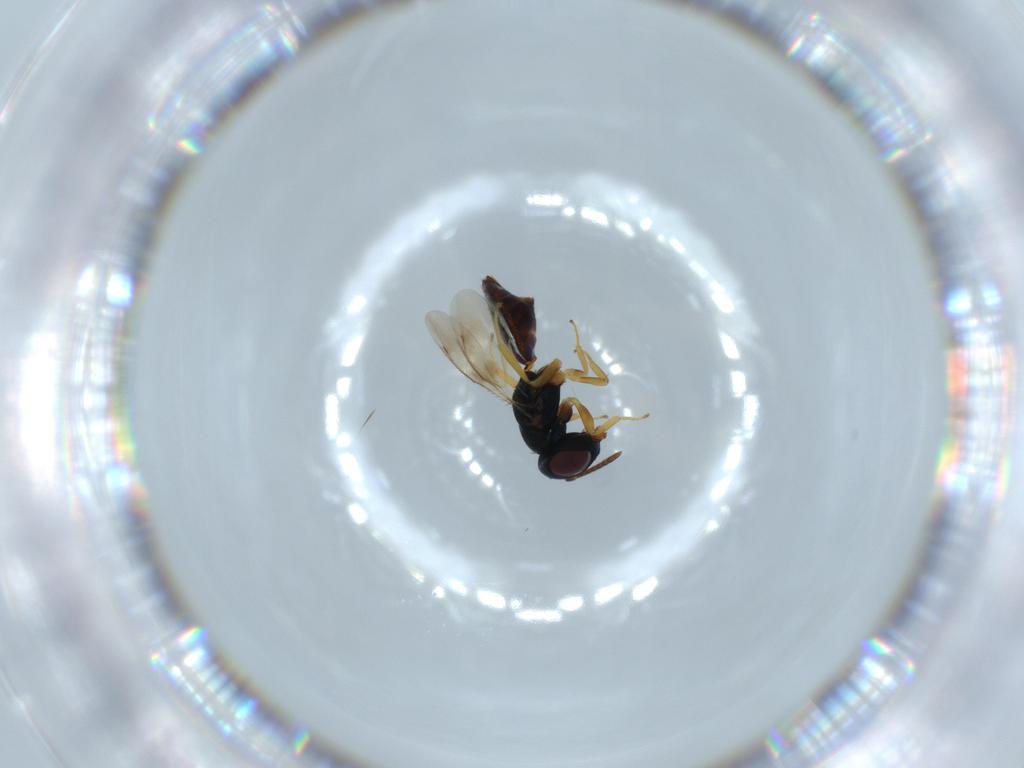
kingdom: Animalia
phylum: Arthropoda
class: Insecta
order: Hymenoptera
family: Pteromalidae
